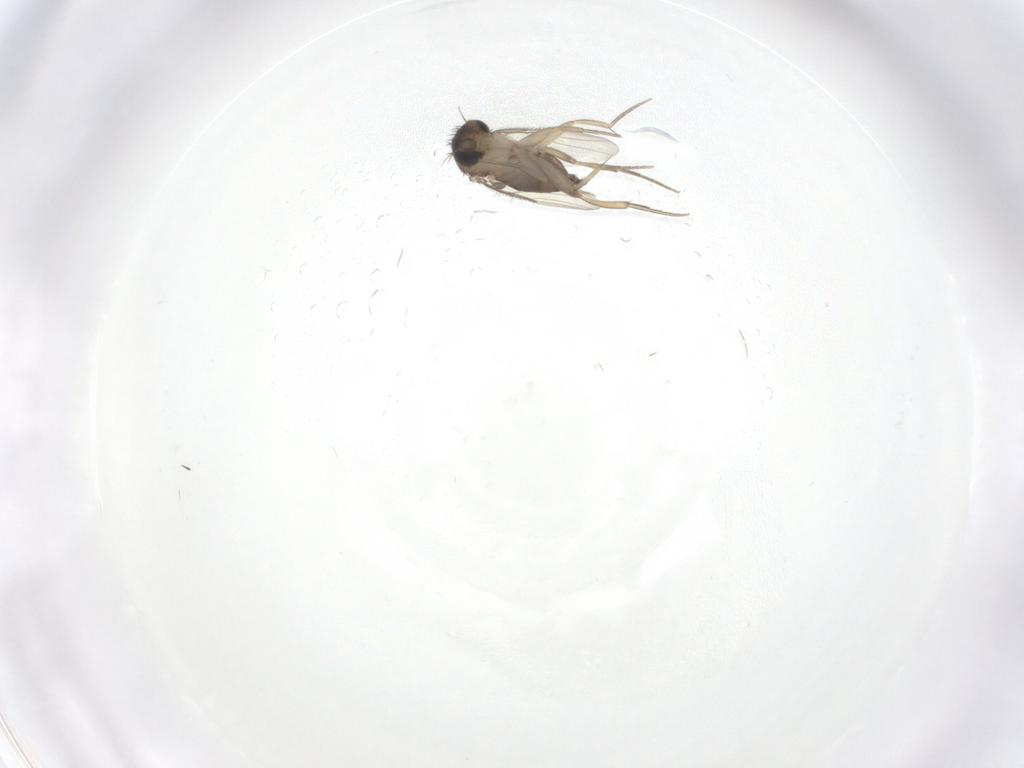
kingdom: Animalia
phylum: Arthropoda
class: Insecta
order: Diptera
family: Phoridae
